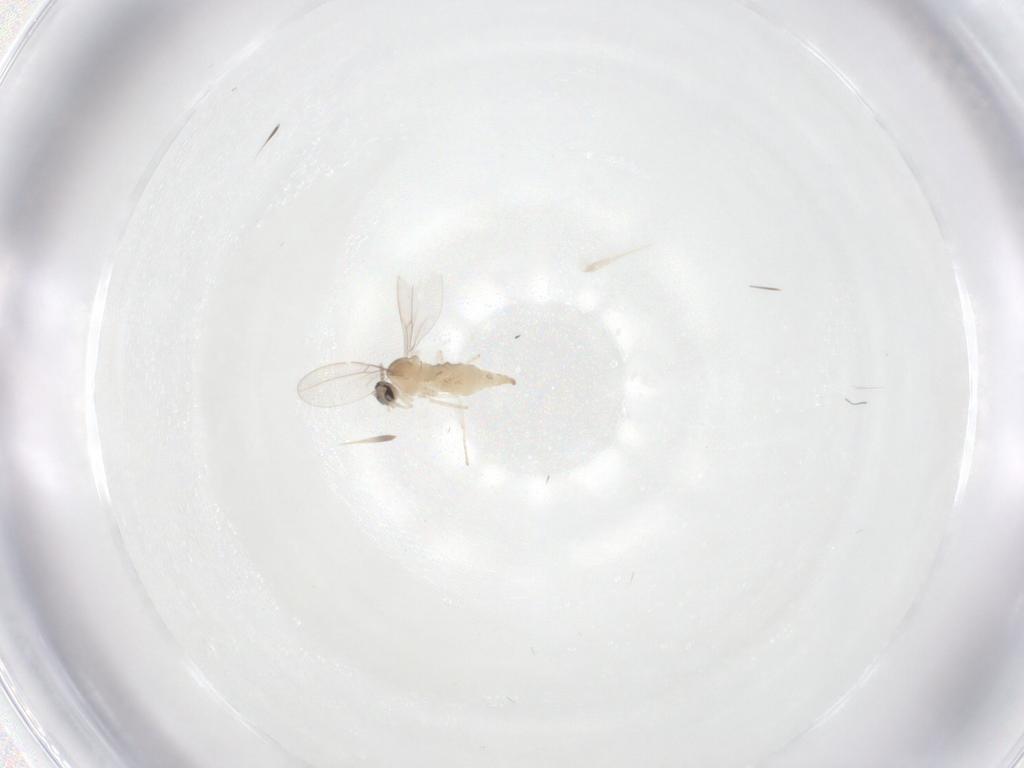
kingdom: Animalia
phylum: Arthropoda
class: Insecta
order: Diptera
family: Cecidomyiidae
